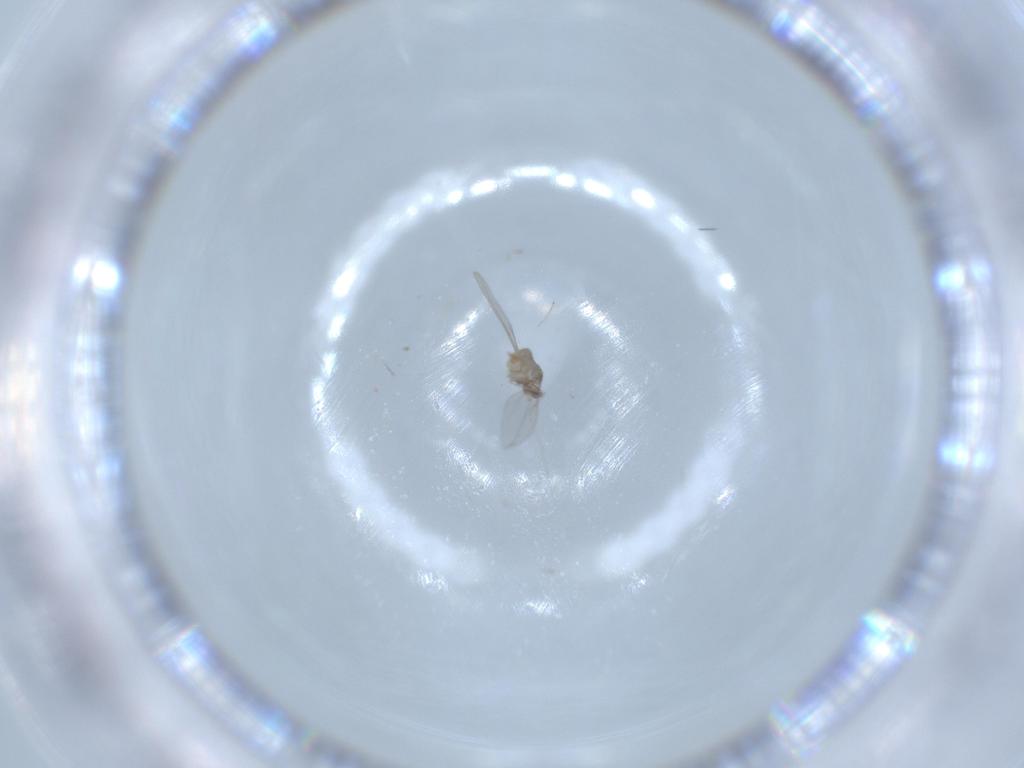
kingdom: Animalia
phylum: Arthropoda
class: Insecta
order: Diptera
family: Cecidomyiidae
